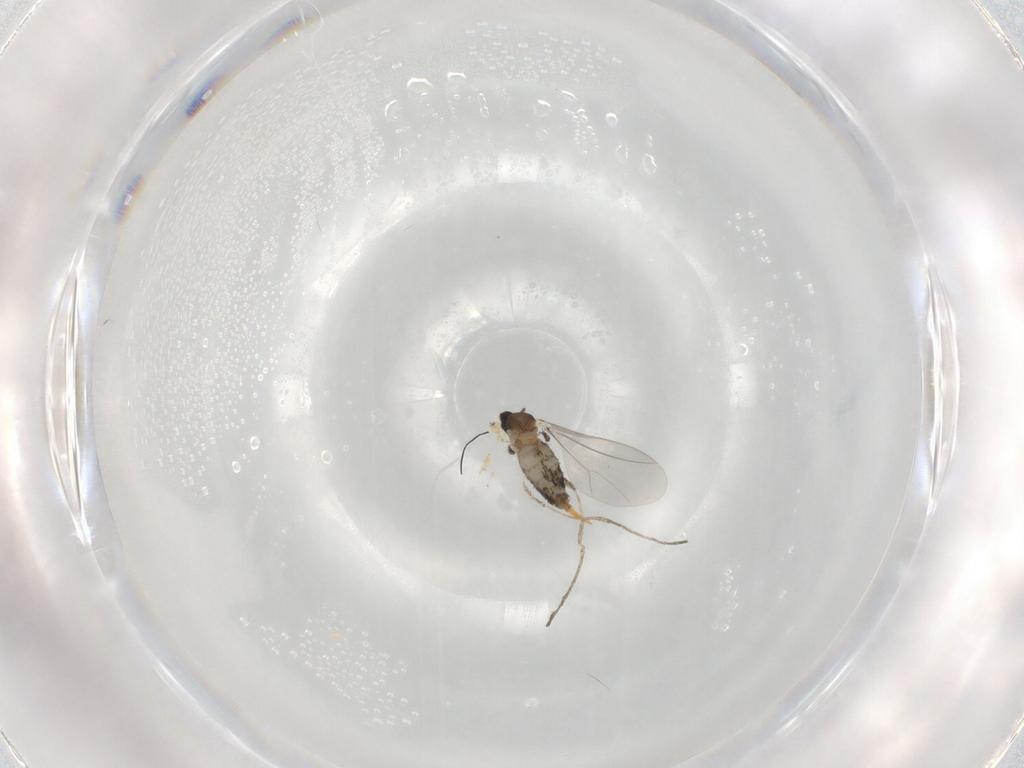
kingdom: Animalia
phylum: Arthropoda
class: Insecta
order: Diptera
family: Cecidomyiidae
